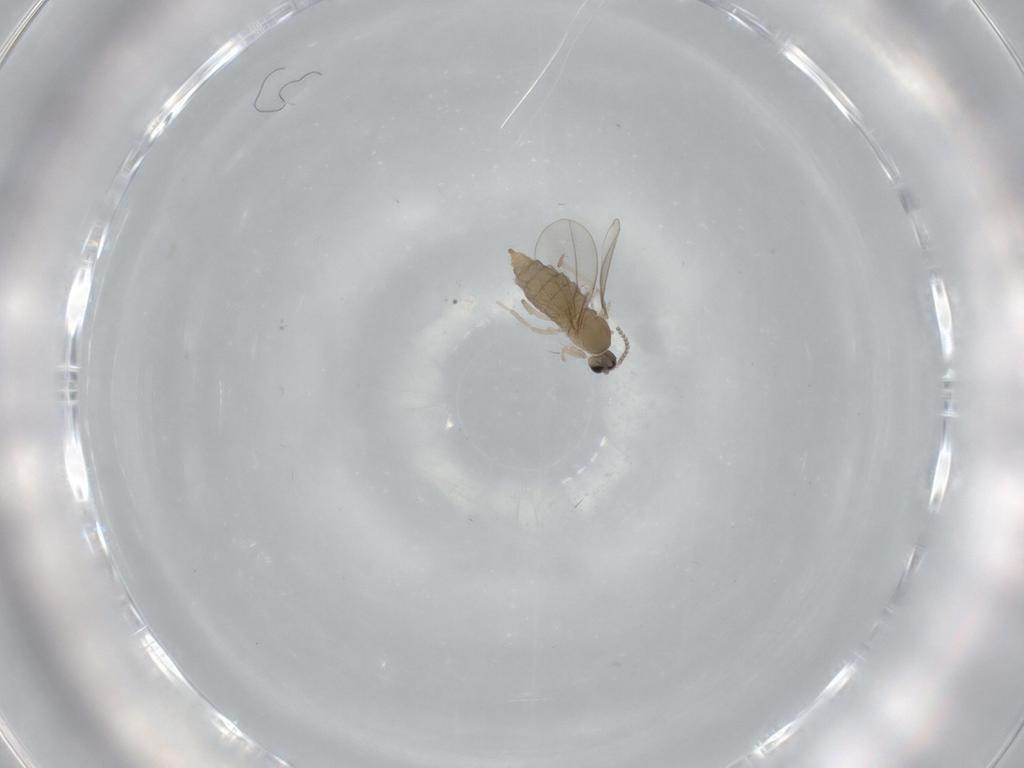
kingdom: Animalia
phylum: Arthropoda
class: Insecta
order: Diptera
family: Cecidomyiidae
